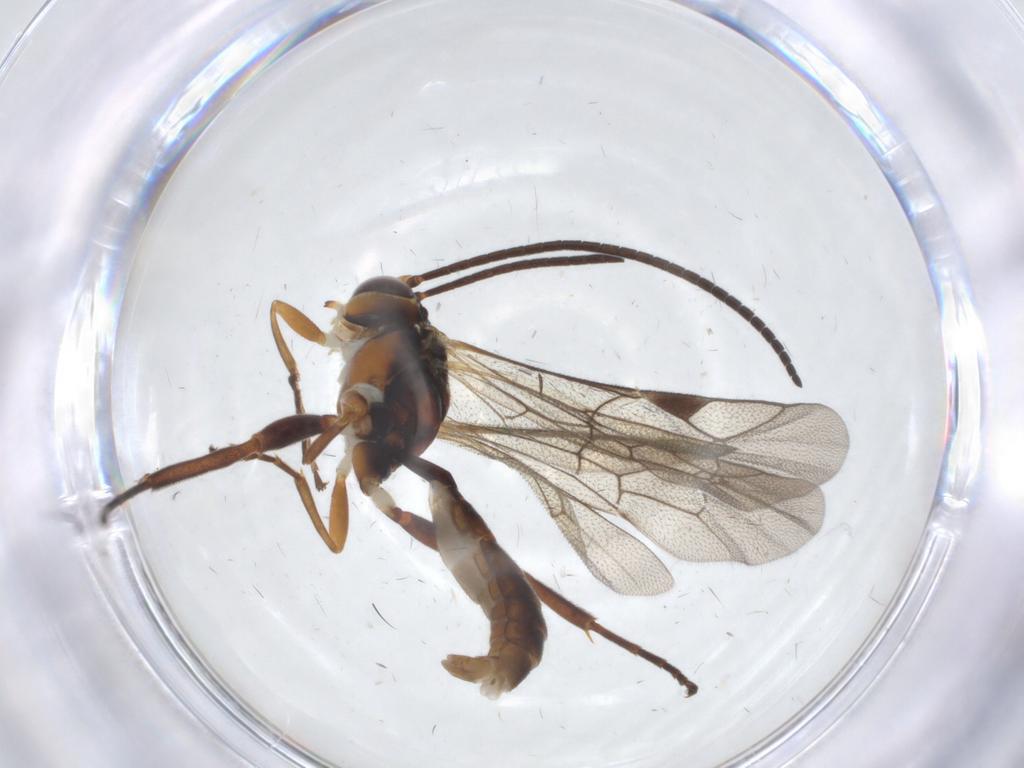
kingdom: Animalia
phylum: Arthropoda
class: Insecta
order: Hymenoptera
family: Ichneumonidae
